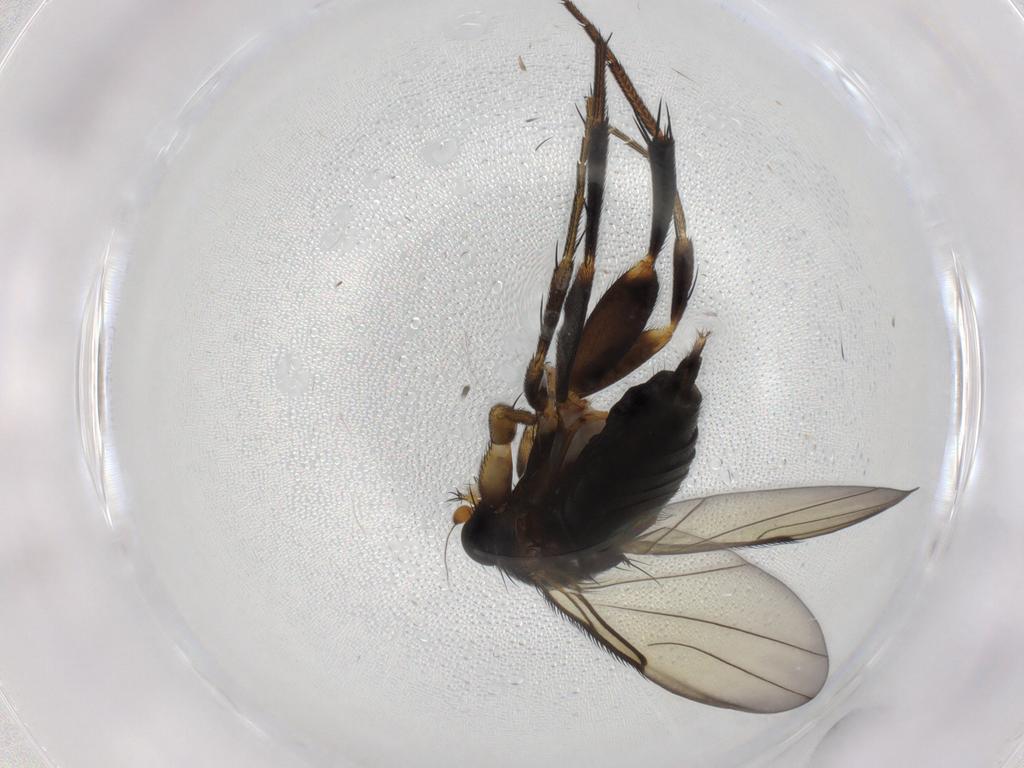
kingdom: Animalia
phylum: Arthropoda
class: Insecta
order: Diptera
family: Phoridae
